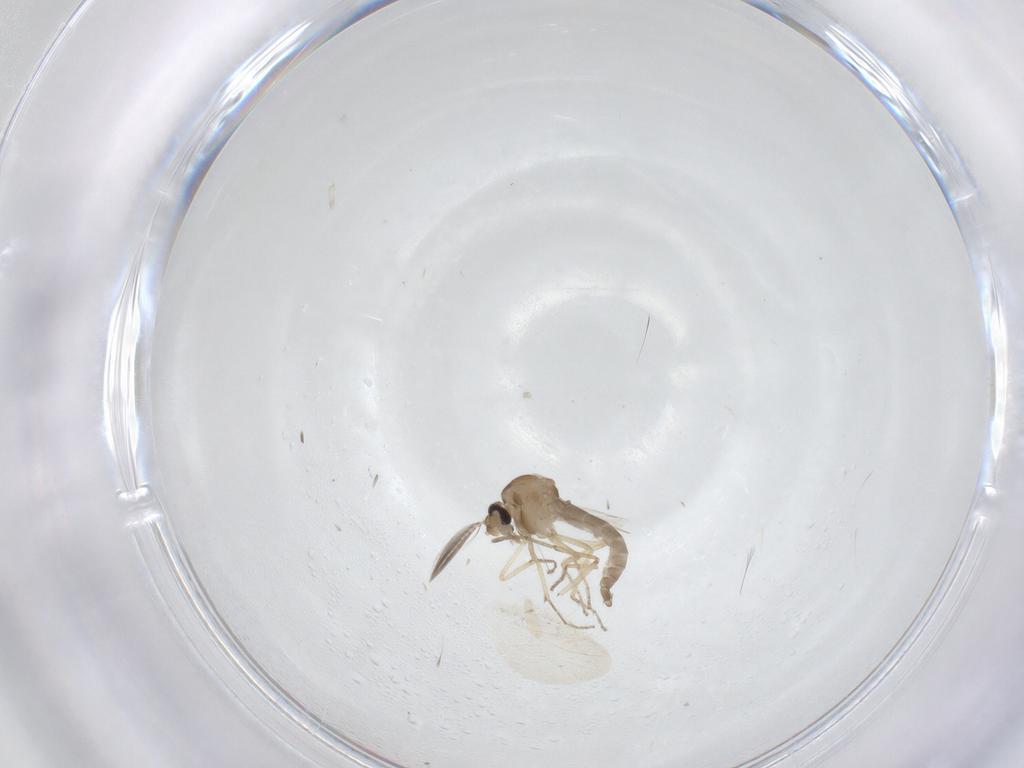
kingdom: Animalia
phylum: Arthropoda
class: Insecta
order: Diptera
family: Ceratopogonidae
